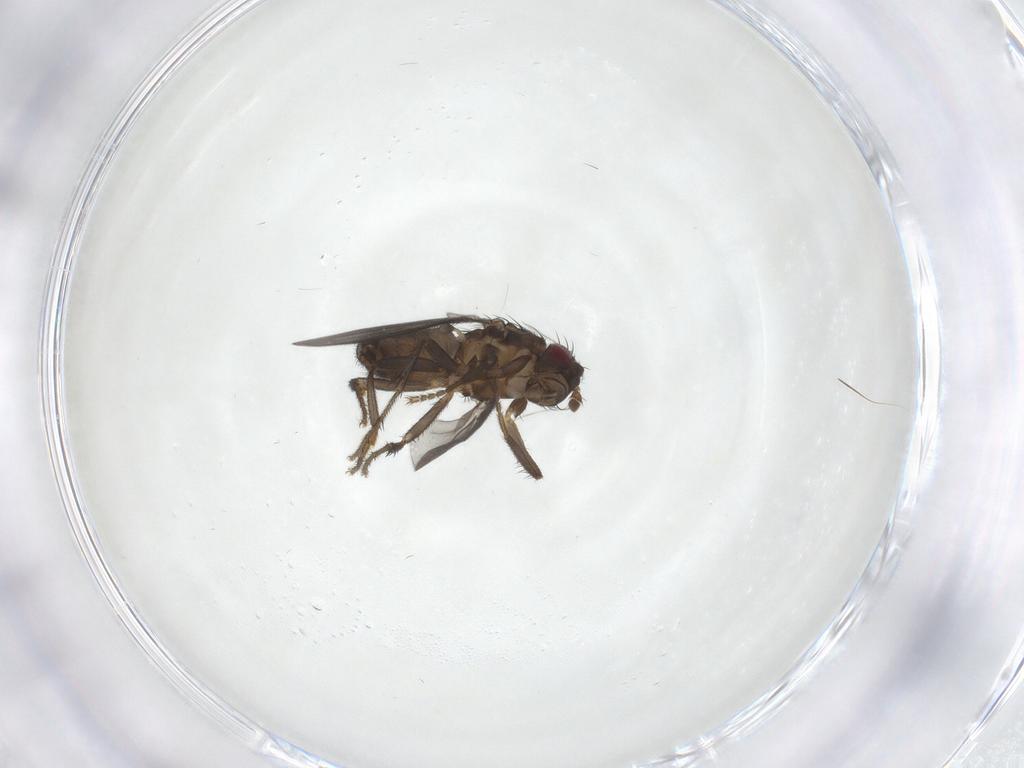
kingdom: Animalia
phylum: Arthropoda
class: Insecta
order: Diptera
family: Sphaeroceridae
